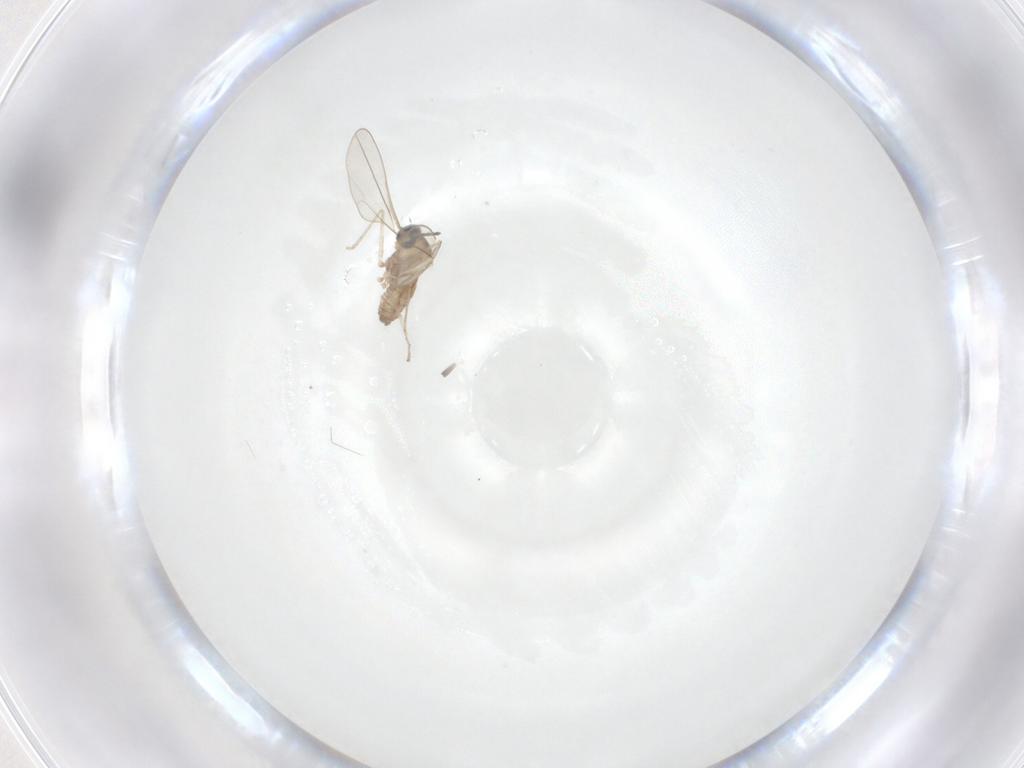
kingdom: Animalia
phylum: Arthropoda
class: Insecta
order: Diptera
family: Cecidomyiidae
